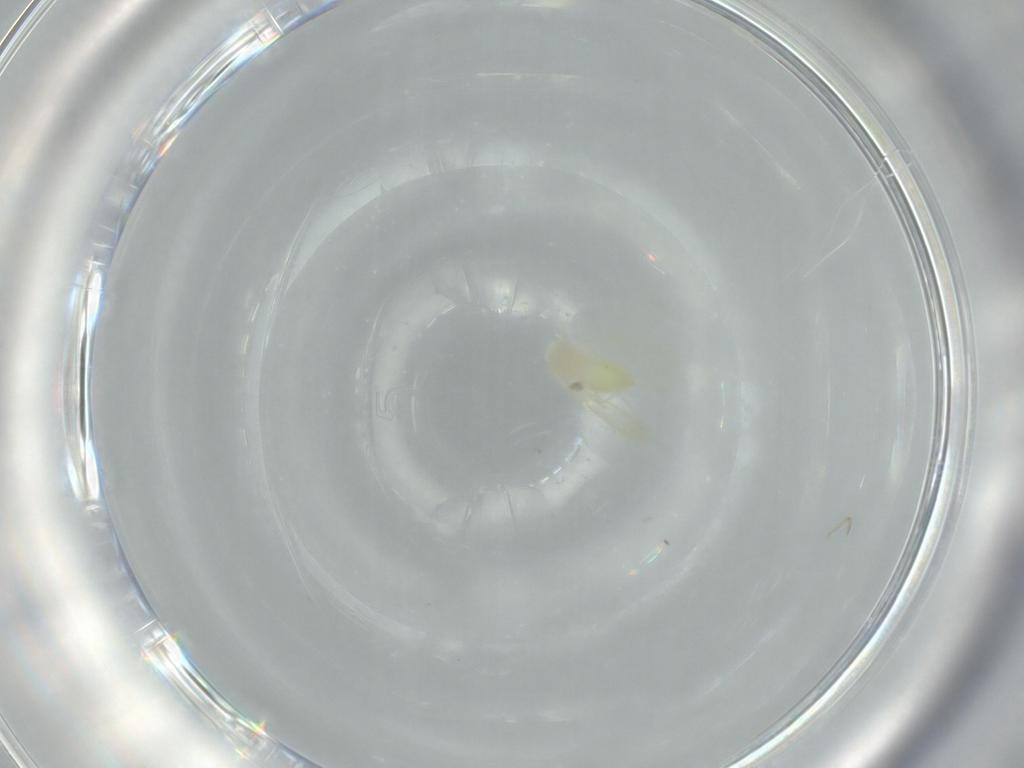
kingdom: Animalia
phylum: Arthropoda
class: Insecta
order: Hemiptera
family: Aleyrodidae
